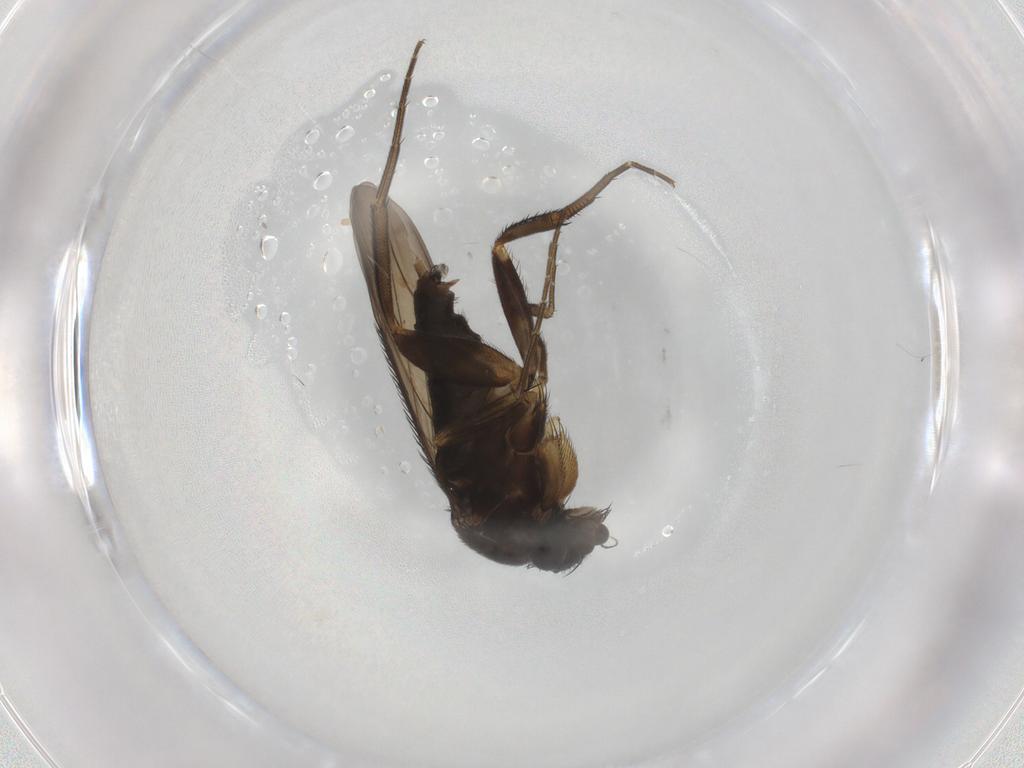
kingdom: Animalia
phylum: Arthropoda
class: Insecta
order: Diptera
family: Phoridae
